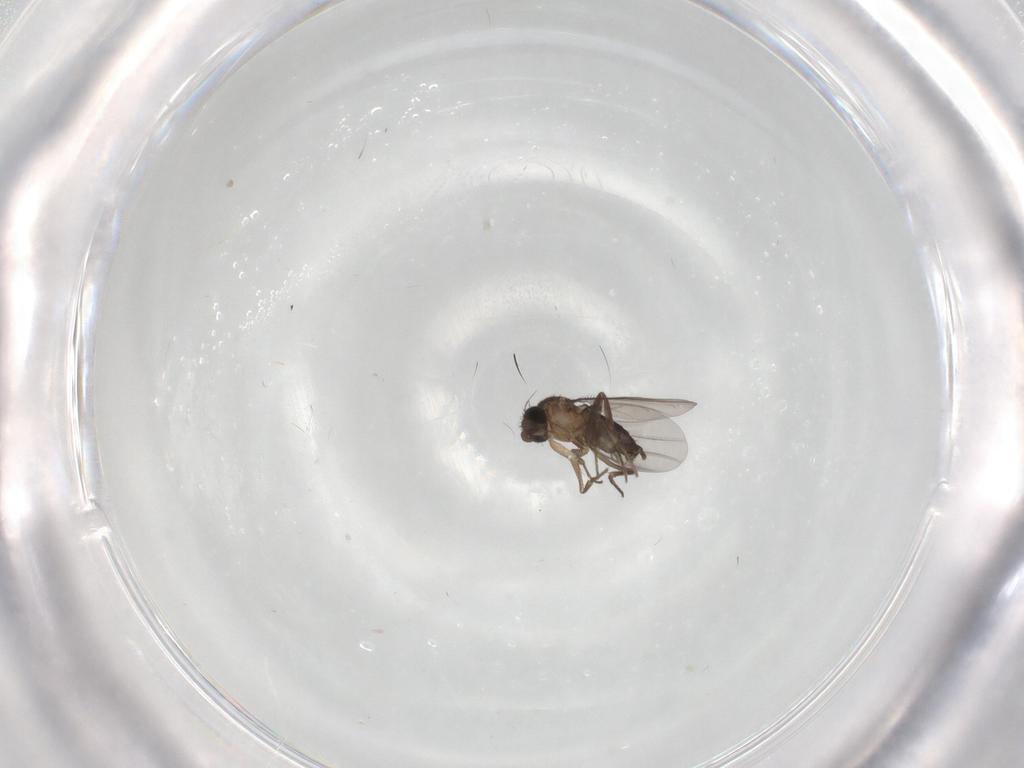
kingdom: Animalia
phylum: Arthropoda
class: Insecta
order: Diptera
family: Phoridae
